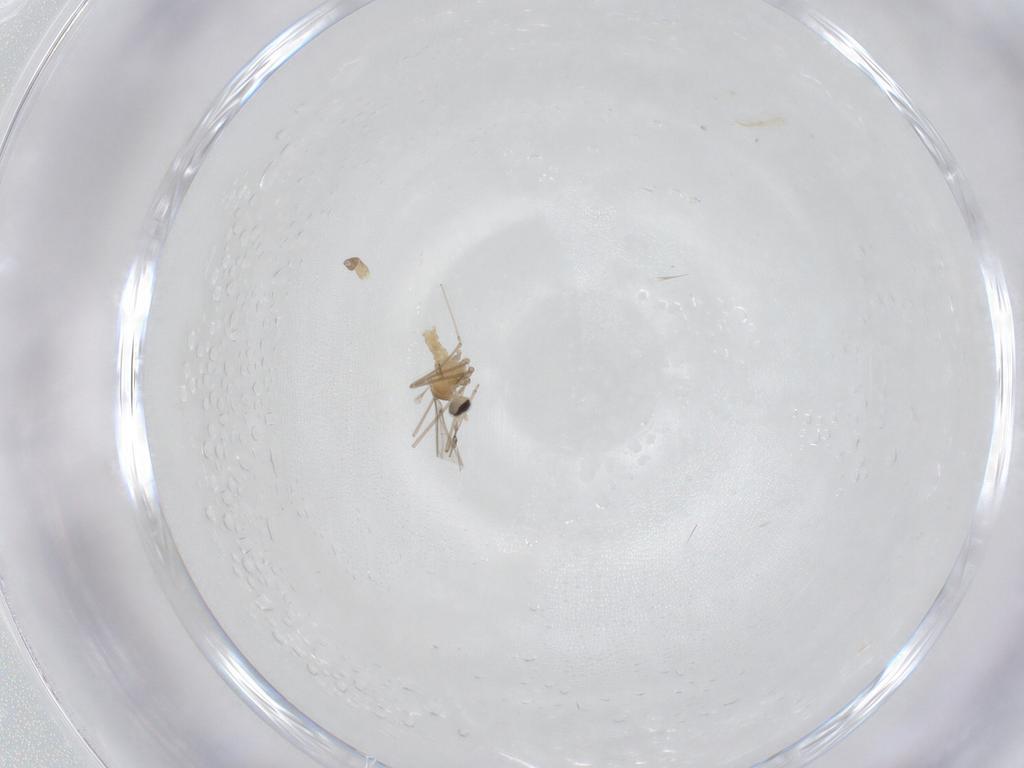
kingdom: Animalia
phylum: Arthropoda
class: Insecta
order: Diptera
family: Cecidomyiidae
